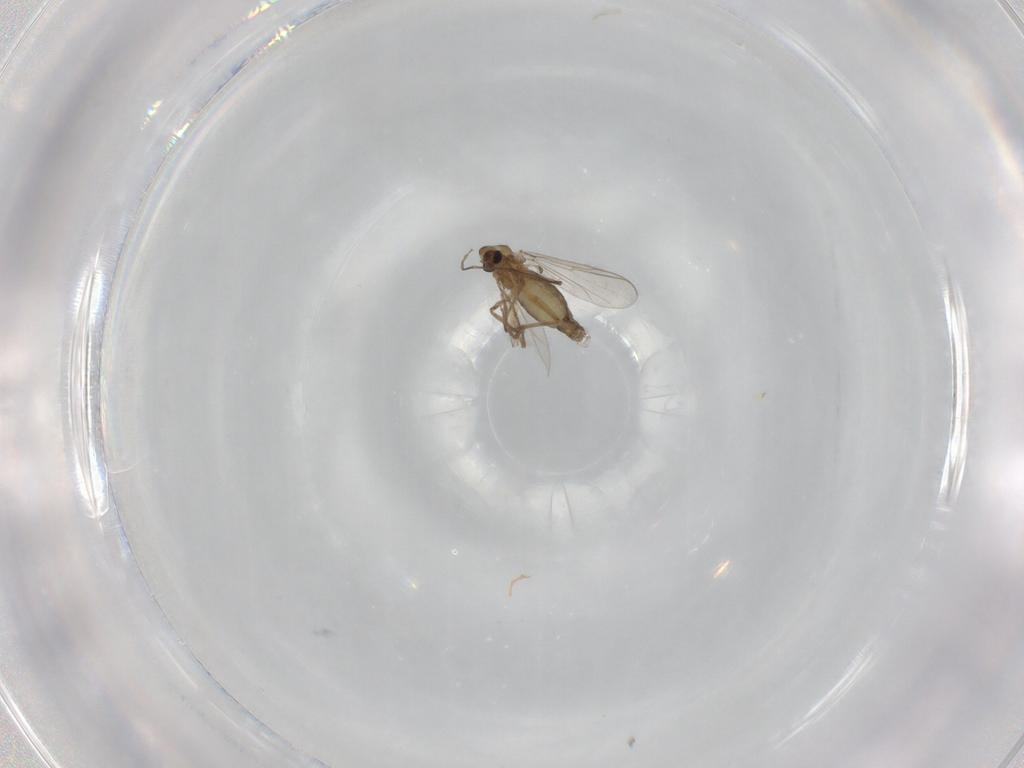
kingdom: Animalia
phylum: Arthropoda
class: Insecta
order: Diptera
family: Chironomidae
